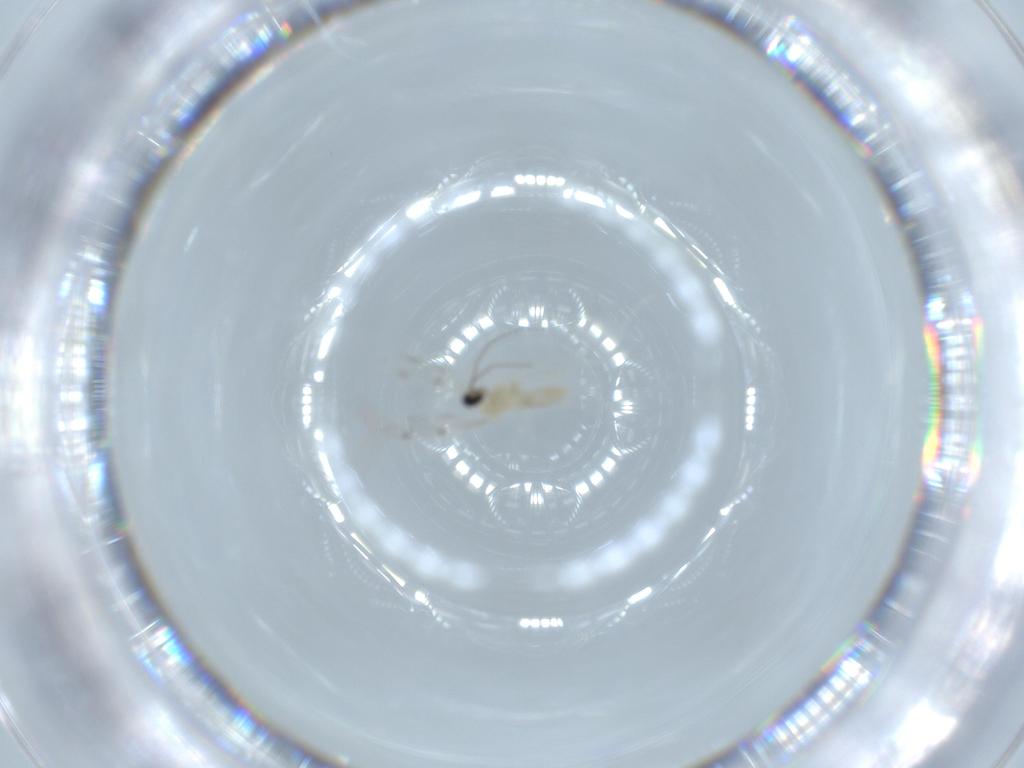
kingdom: Animalia
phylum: Arthropoda
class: Insecta
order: Diptera
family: Cecidomyiidae
